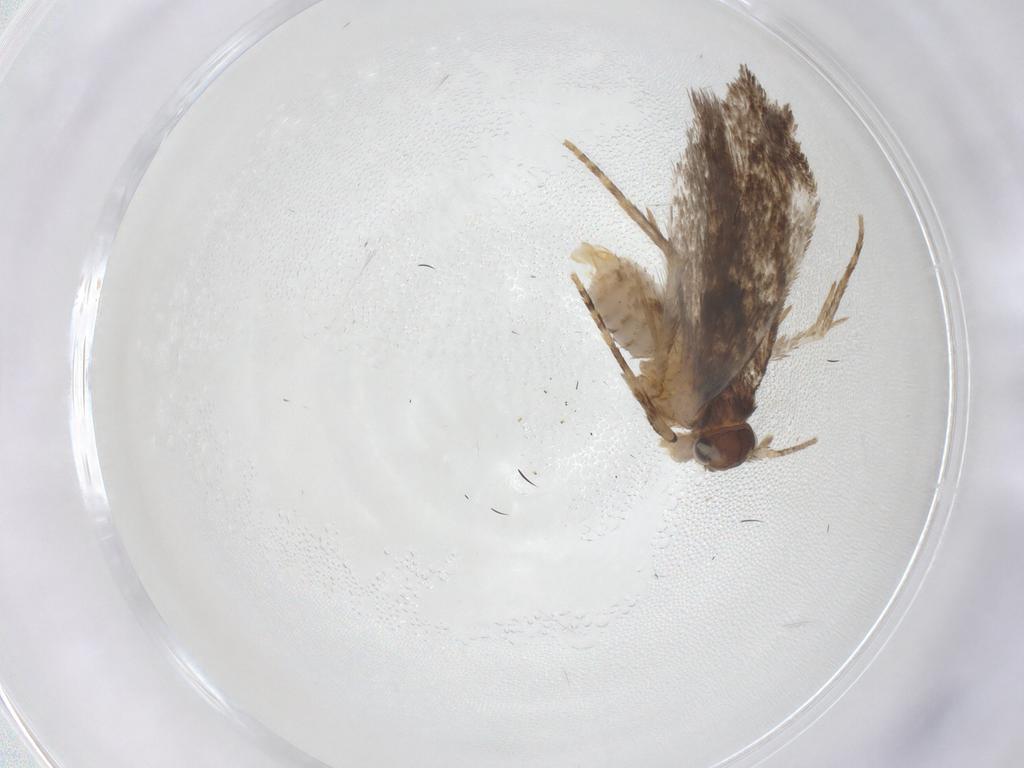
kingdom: Animalia
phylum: Arthropoda
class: Insecta
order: Lepidoptera
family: Dryadaulidae
